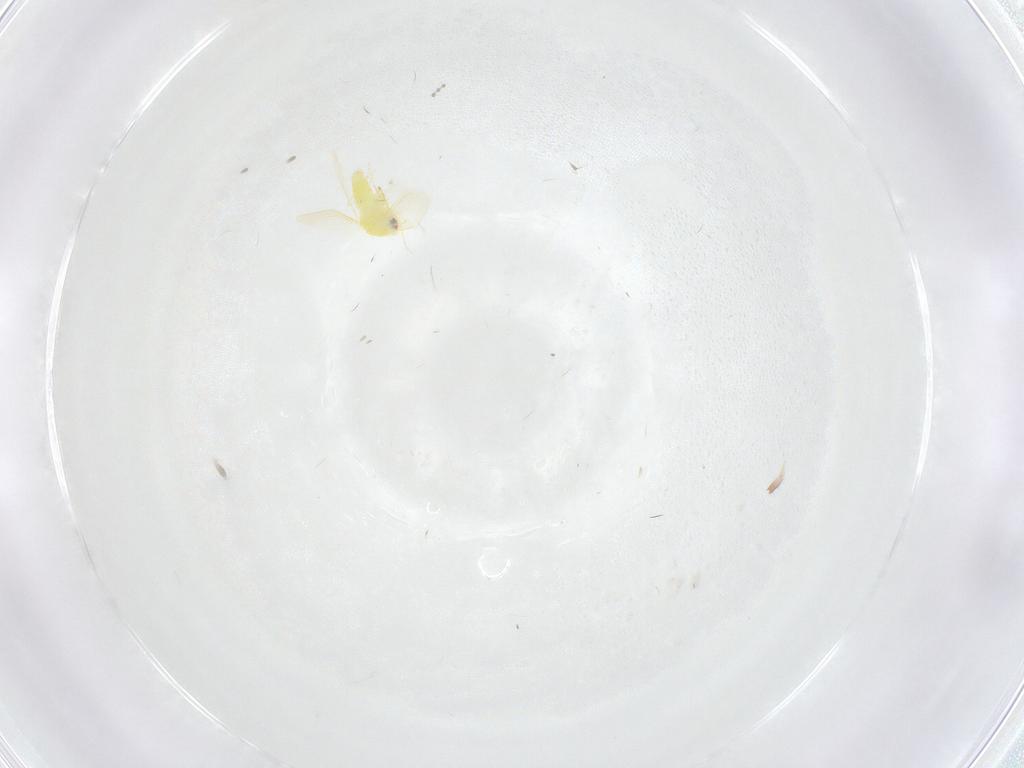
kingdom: Animalia
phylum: Arthropoda
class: Insecta
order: Hemiptera
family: Aleyrodidae
